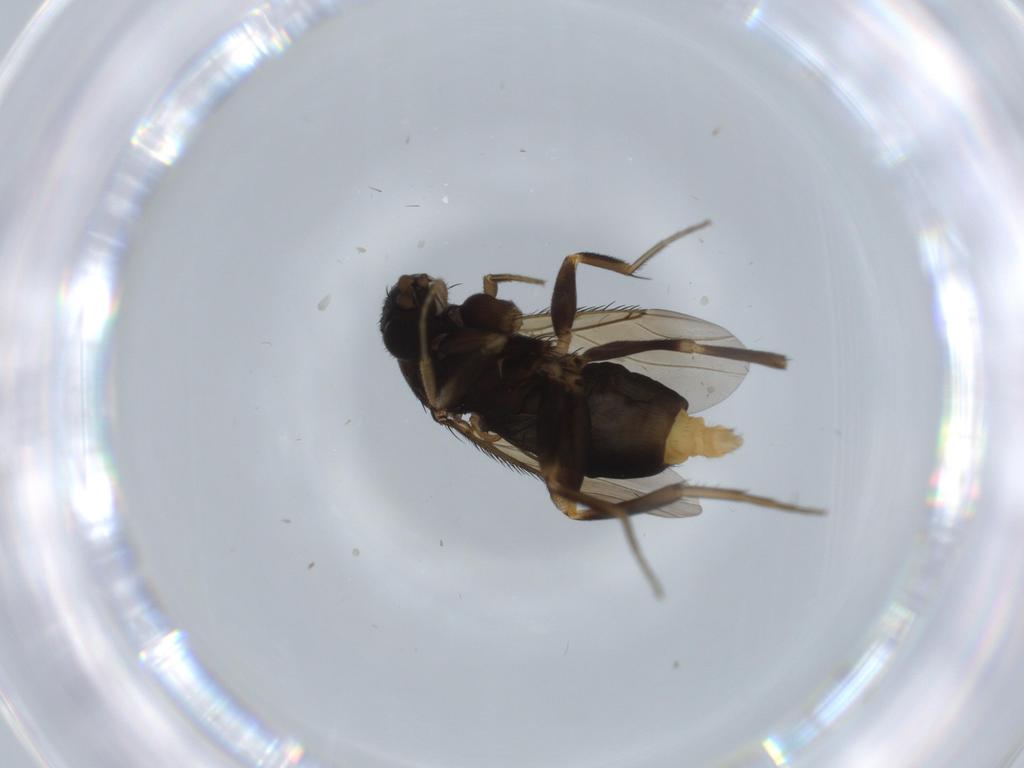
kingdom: Animalia
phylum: Arthropoda
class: Insecta
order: Diptera
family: Phoridae
